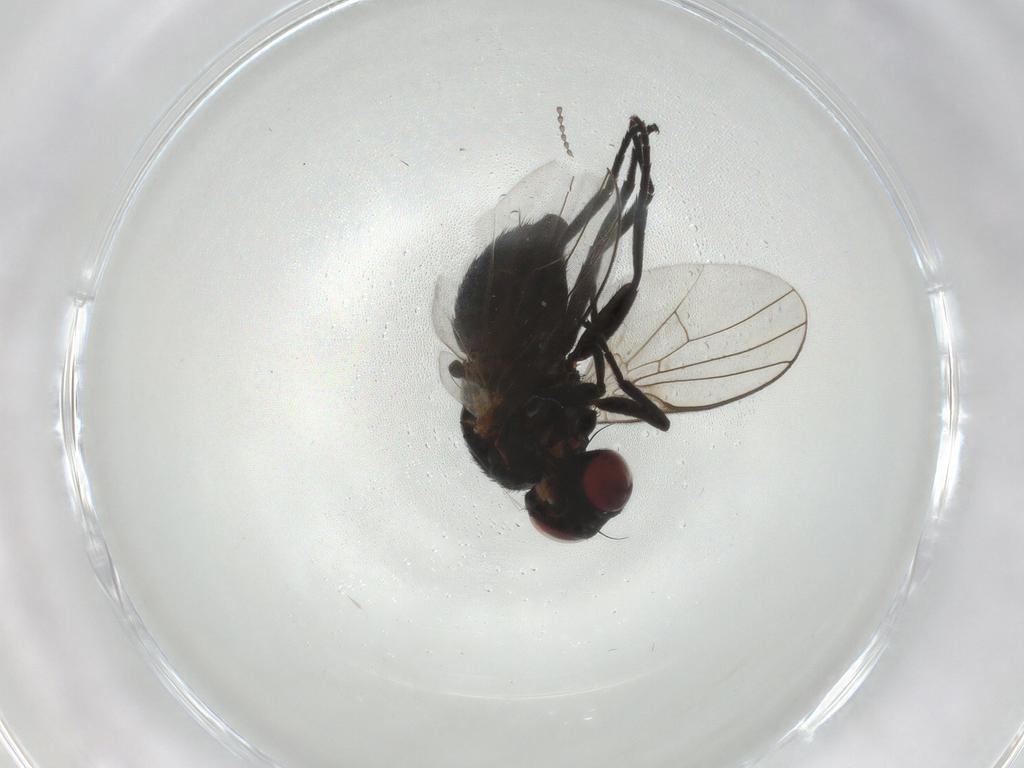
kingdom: Animalia
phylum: Arthropoda
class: Insecta
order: Diptera
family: Agromyzidae
